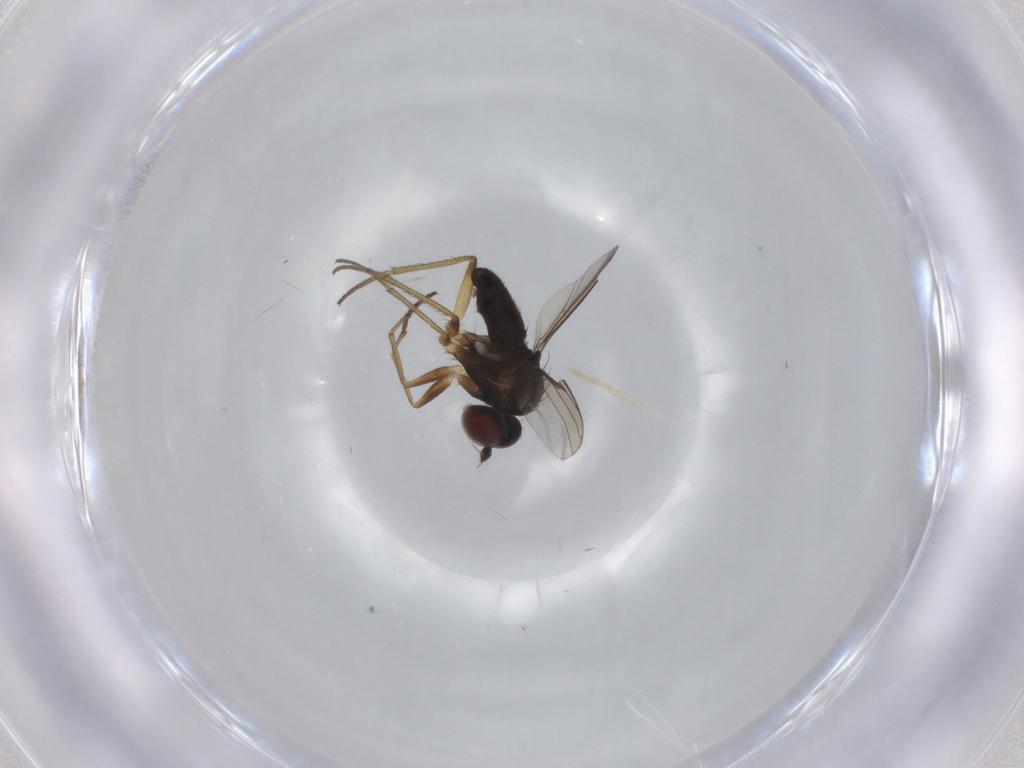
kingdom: Animalia
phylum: Arthropoda
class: Insecta
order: Diptera
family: Dolichopodidae
